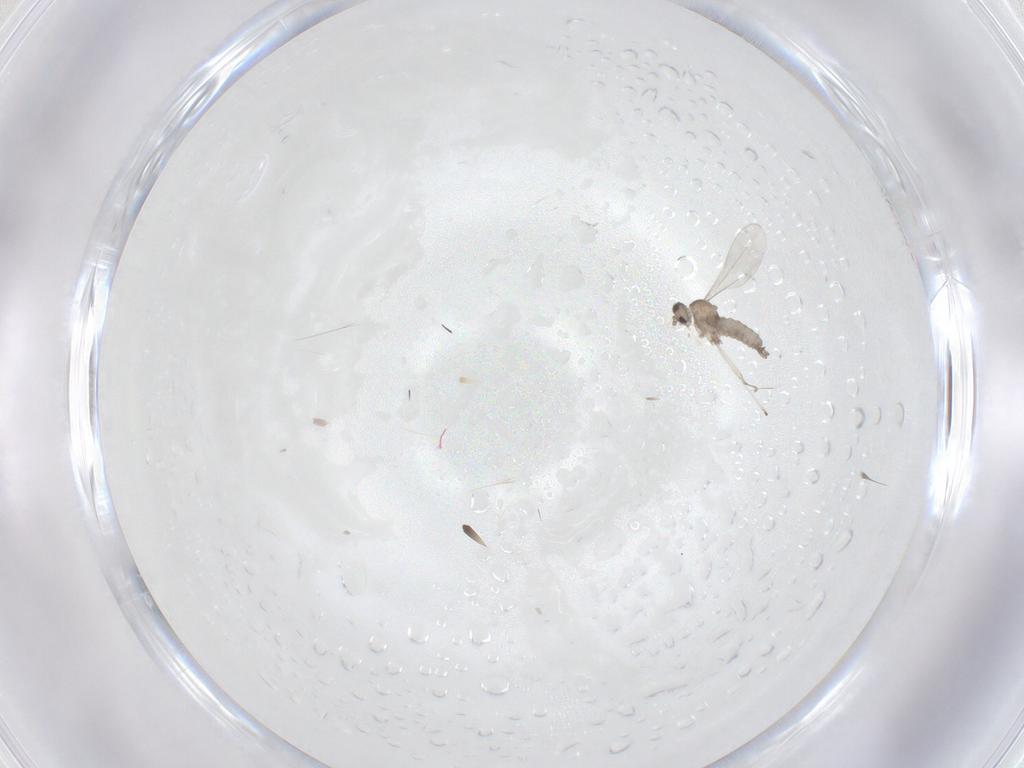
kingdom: Animalia
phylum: Arthropoda
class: Insecta
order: Diptera
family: Cecidomyiidae
